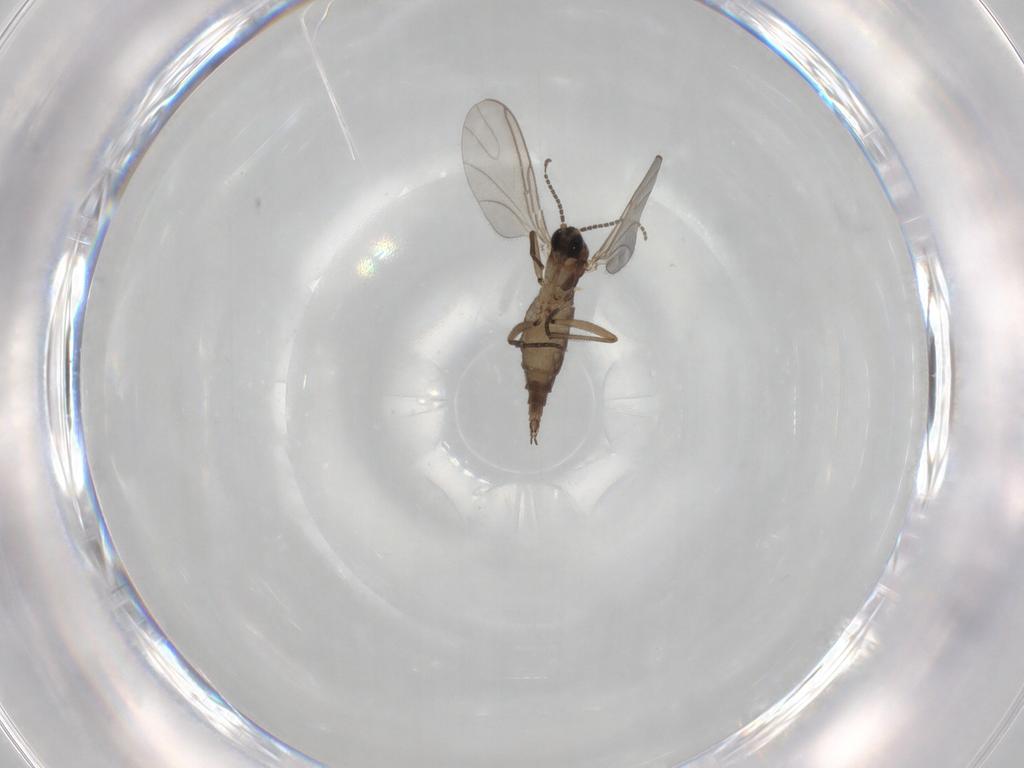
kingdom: Animalia
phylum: Arthropoda
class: Insecta
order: Diptera
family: Sciaridae
